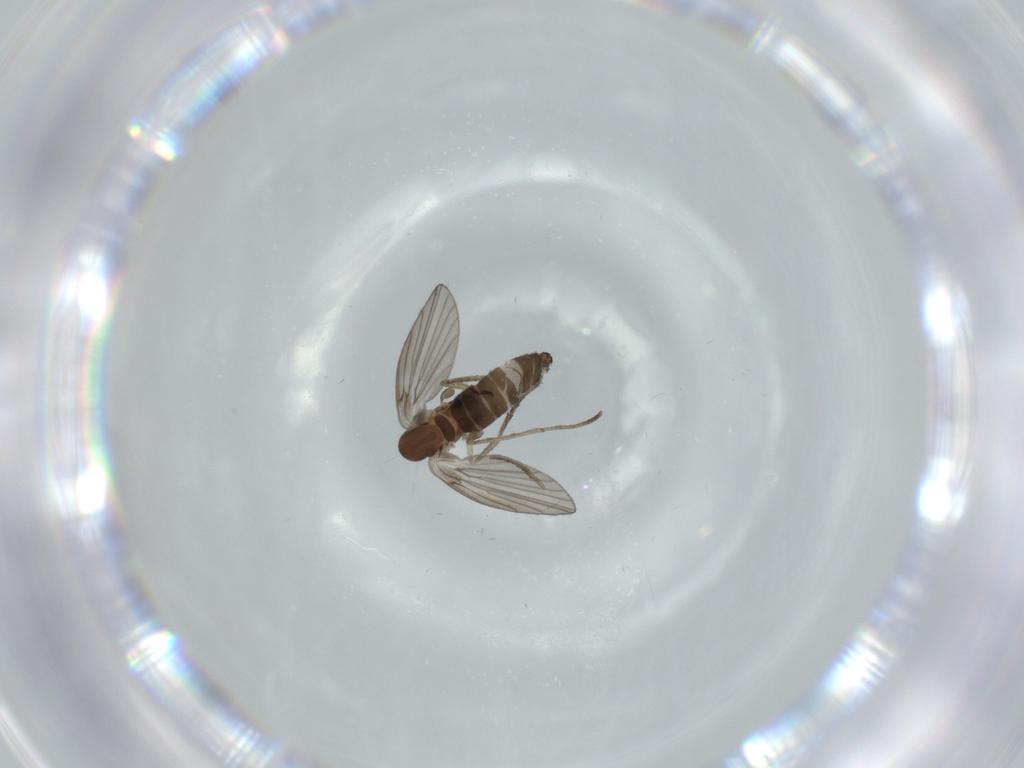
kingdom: Animalia
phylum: Arthropoda
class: Insecta
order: Diptera
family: Psychodidae
